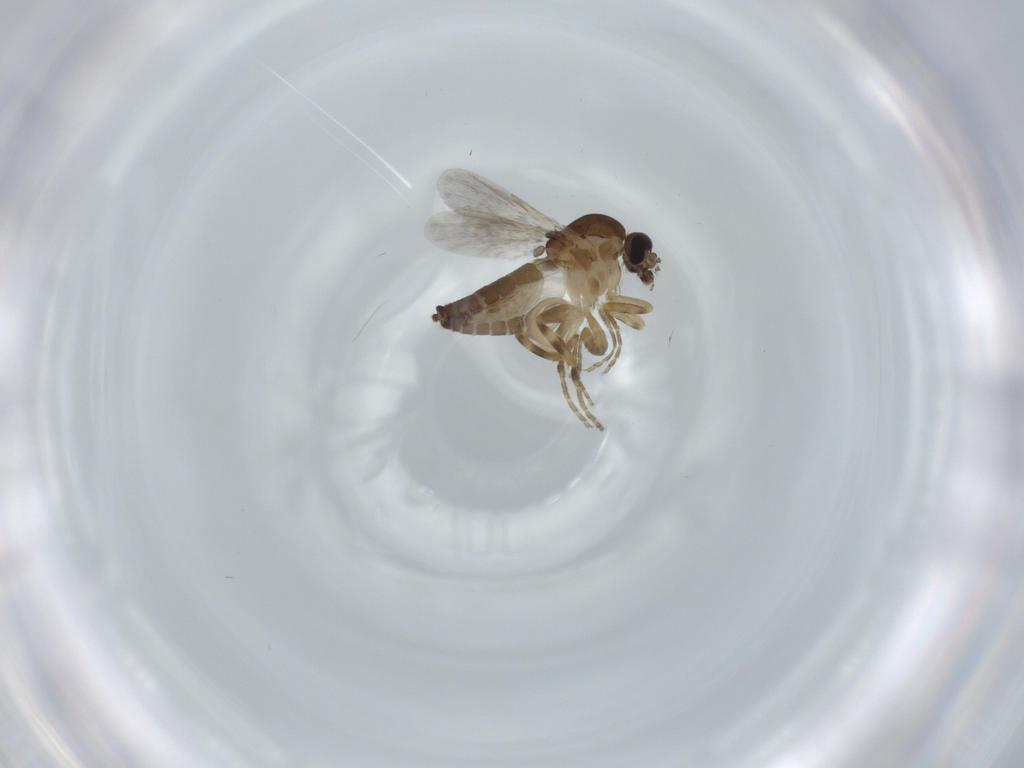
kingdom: Animalia
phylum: Arthropoda
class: Insecta
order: Diptera
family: Ceratopogonidae
